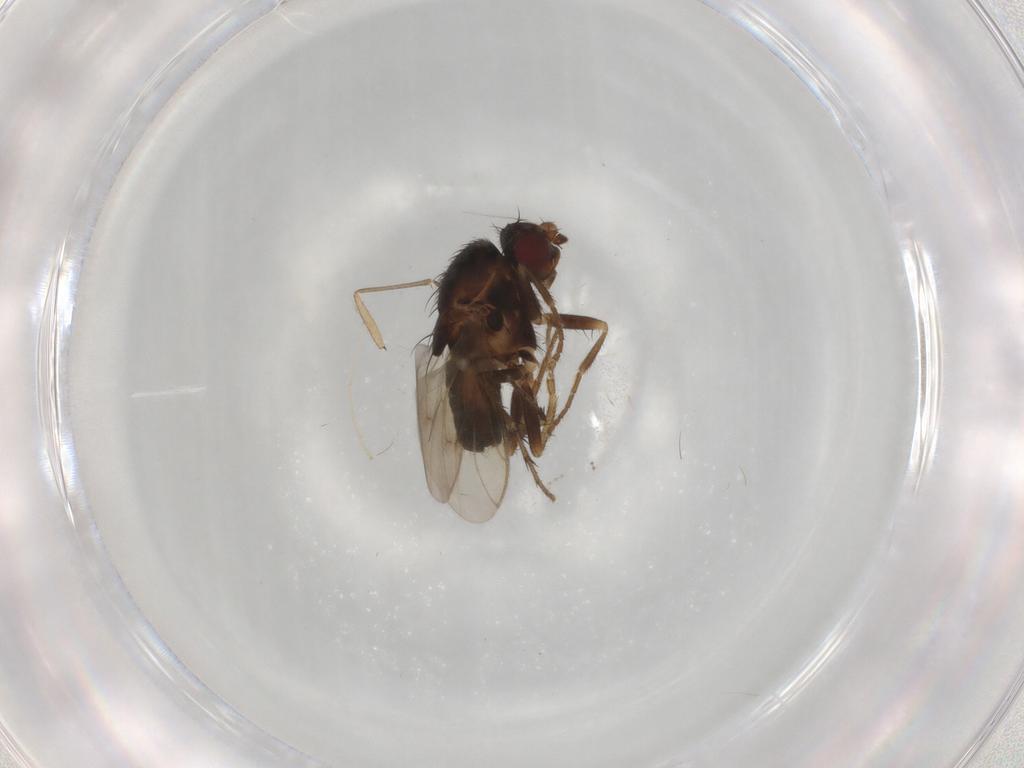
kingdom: Animalia
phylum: Arthropoda
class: Insecta
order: Diptera
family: Sphaeroceridae
